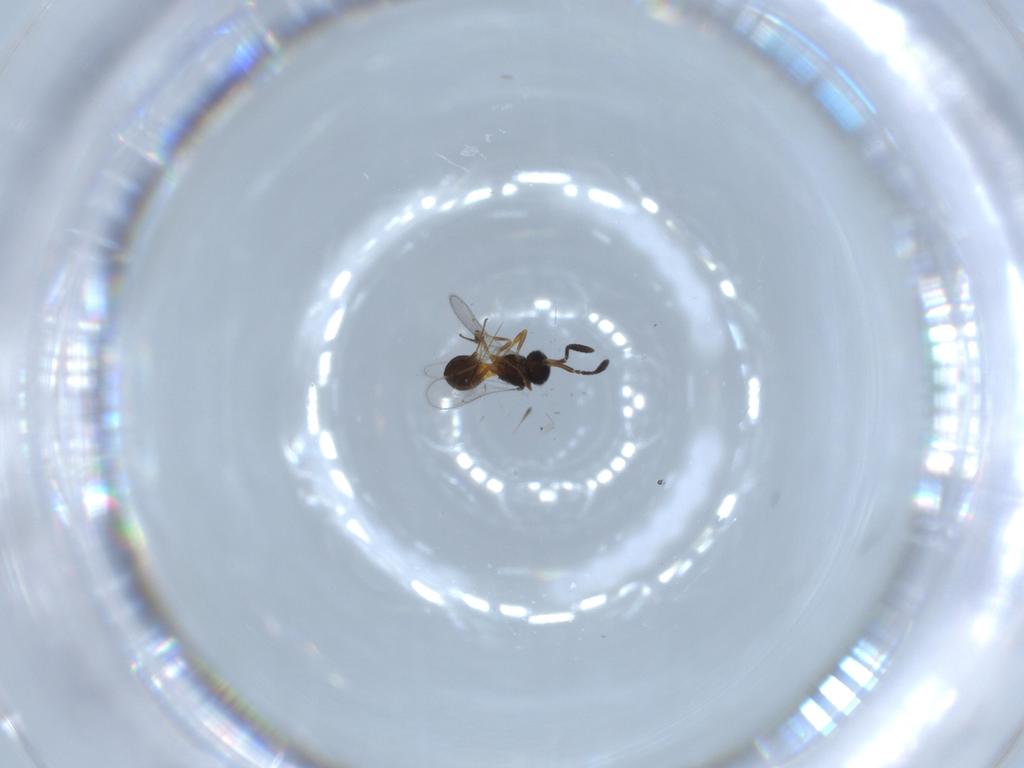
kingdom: Animalia
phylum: Arthropoda
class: Insecta
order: Hymenoptera
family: Scelionidae
